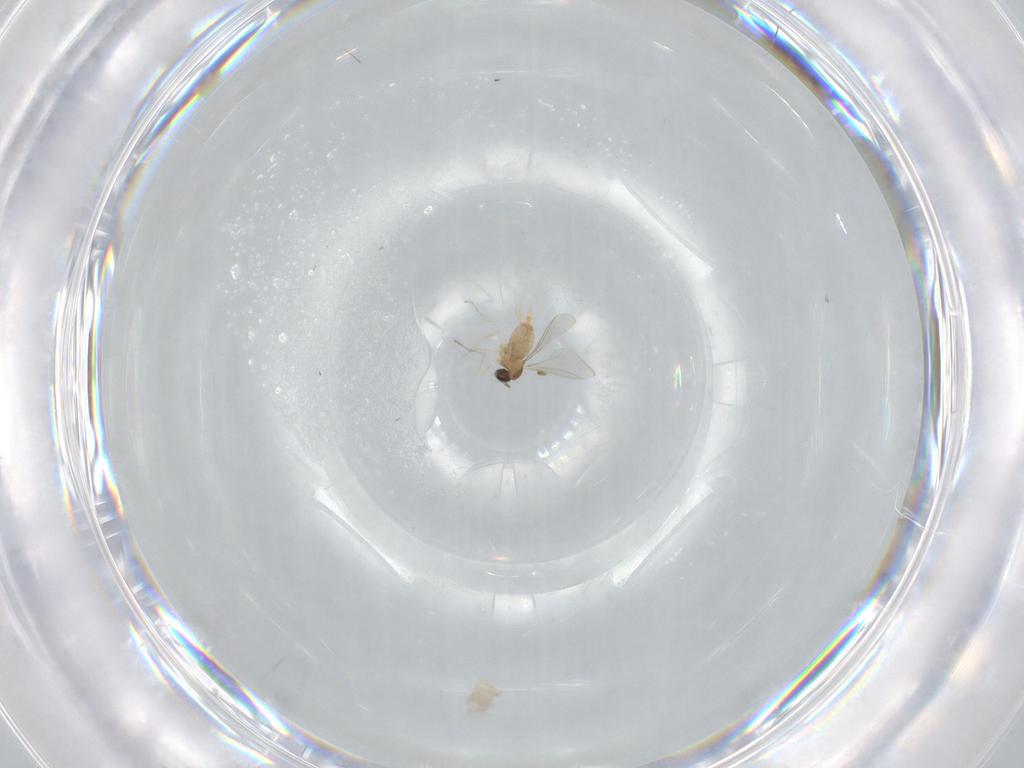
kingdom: Animalia
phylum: Arthropoda
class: Insecta
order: Diptera
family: Cecidomyiidae
